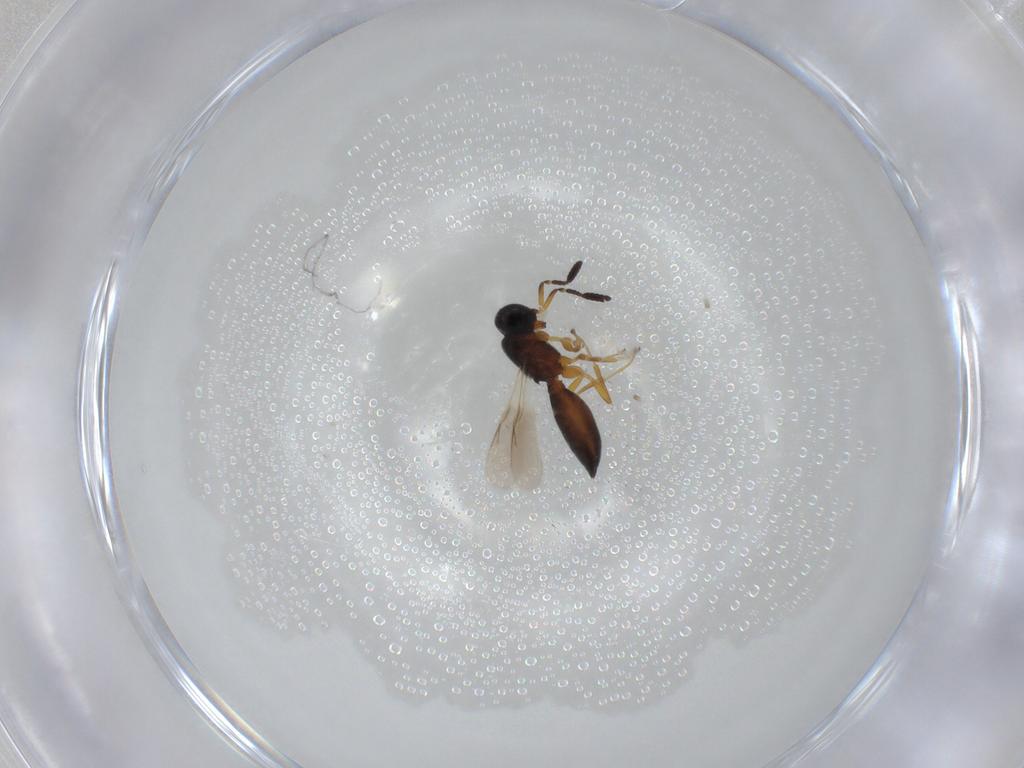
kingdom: Animalia
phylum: Arthropoda
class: Insecta
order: Hymenoptera
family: Scelionidae
